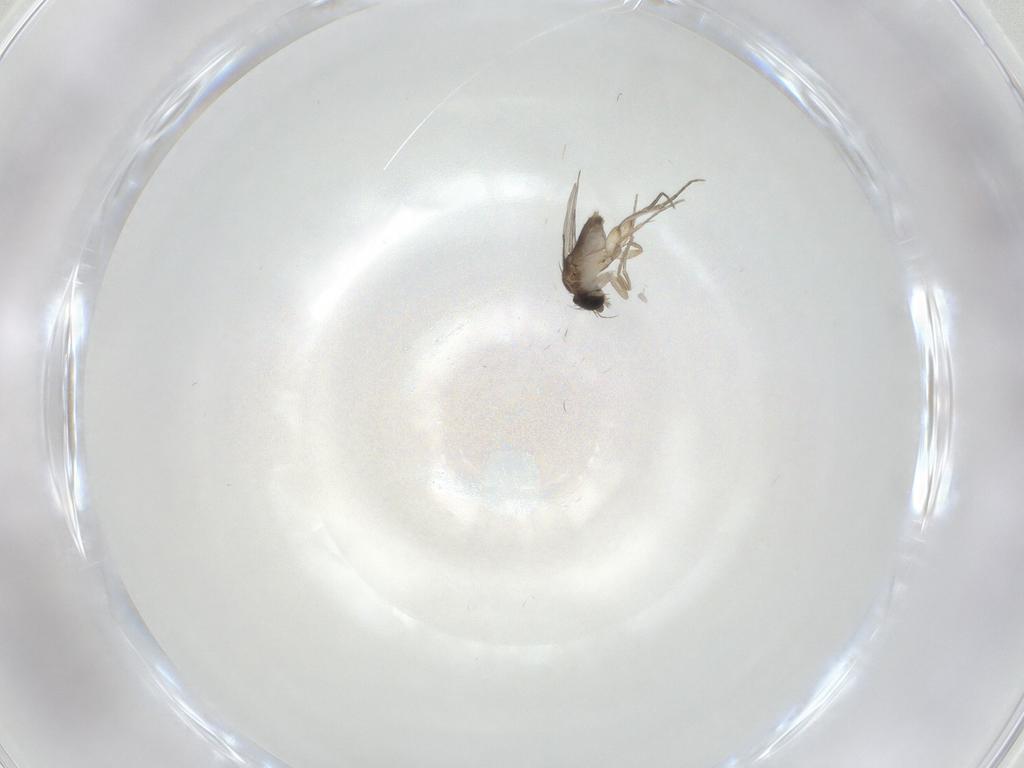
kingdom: Animalia
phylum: Arthropoda
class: Insecta
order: Diptera
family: Phoridae
